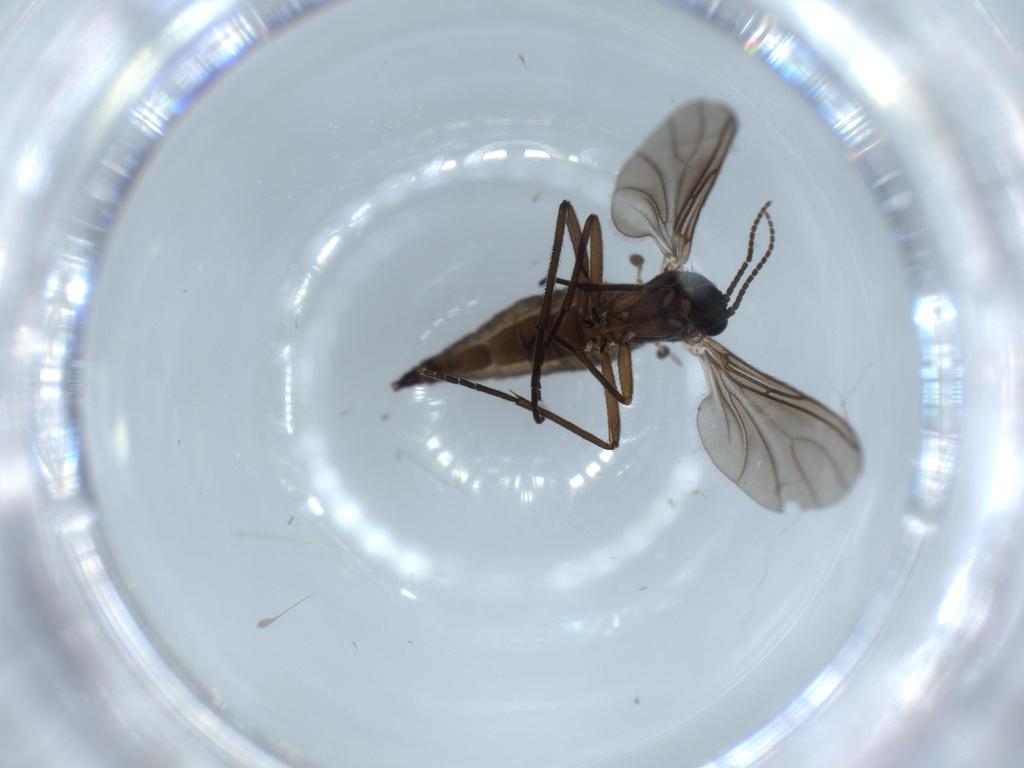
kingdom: Animalia
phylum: Arthropoda
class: Insecta
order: Diptera
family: Sciaridae
